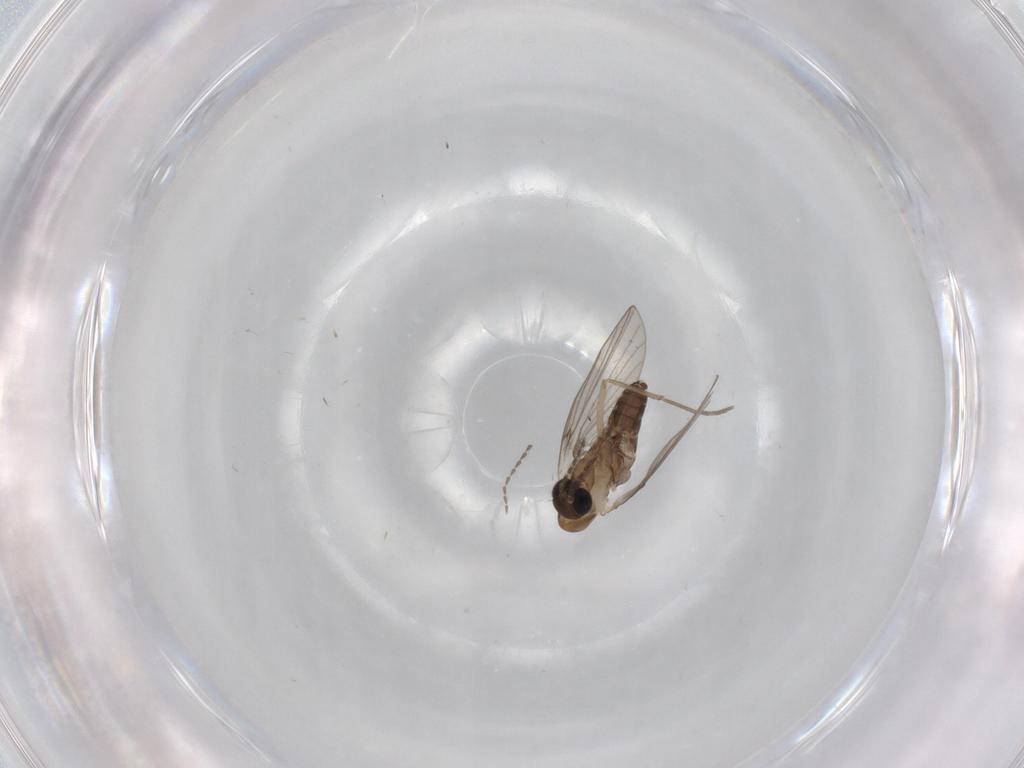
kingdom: Animalia
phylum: Arthropoda
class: Insecta
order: Diptera
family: Psychodidae
